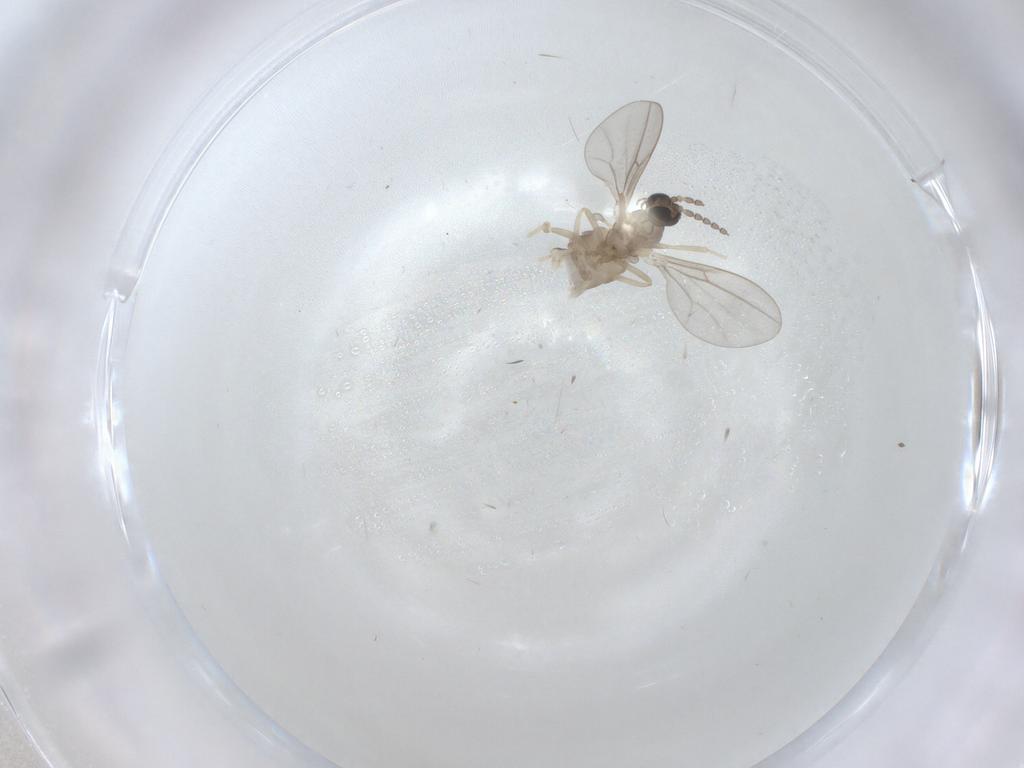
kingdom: Animalia
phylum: Arthropoda
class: Insecta
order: Diptera
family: Cecidomyiidae
